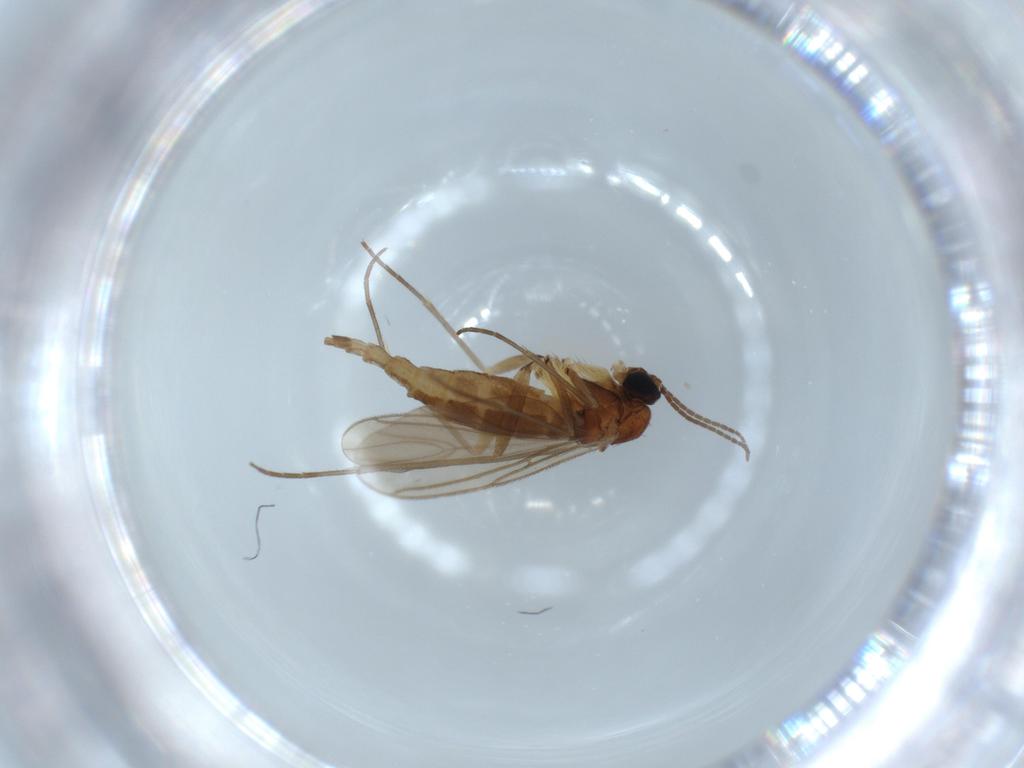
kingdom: Animalia
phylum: Arthropoda
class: Insecta
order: Diptera
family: Sciaridae
